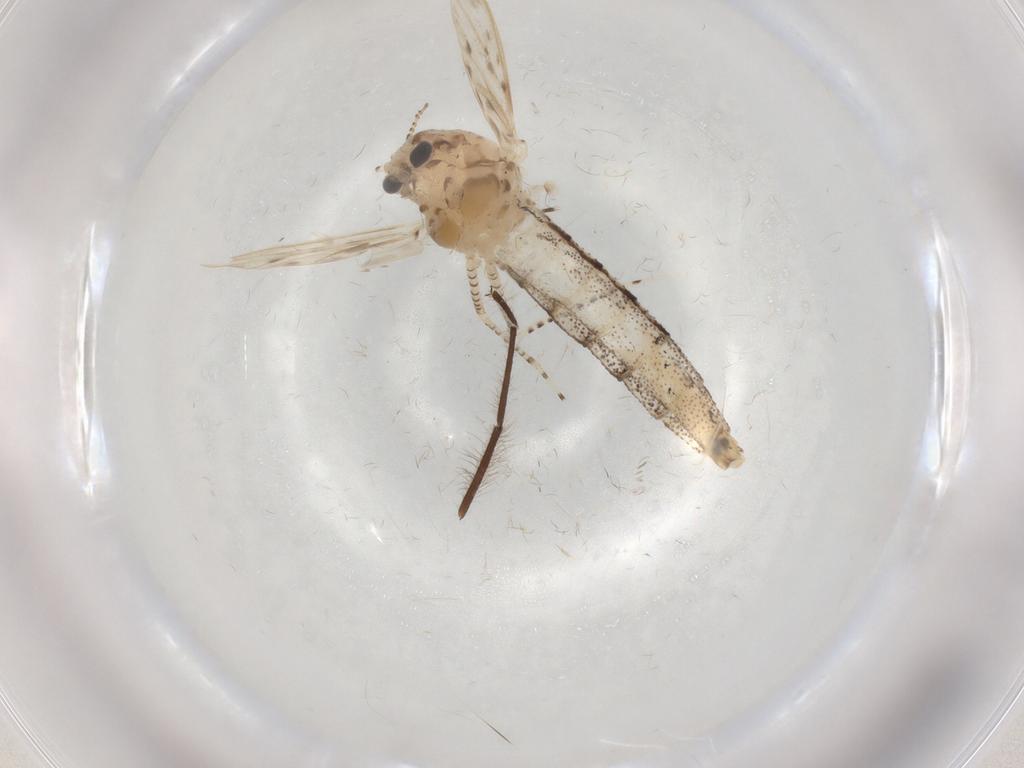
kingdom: Animalia
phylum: Arthropoda
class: Insecta
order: Diptera
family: Chaoboridae
